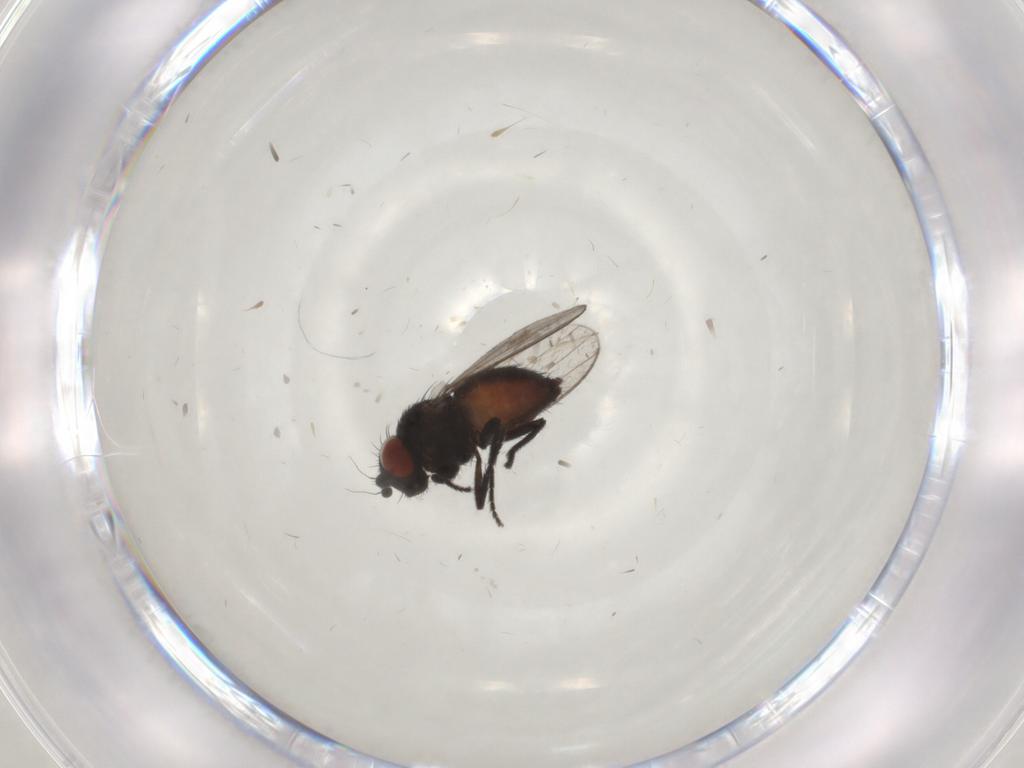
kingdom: Animalia
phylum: Arthropoda
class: Insecta
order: Diptera
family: Milichiidae
